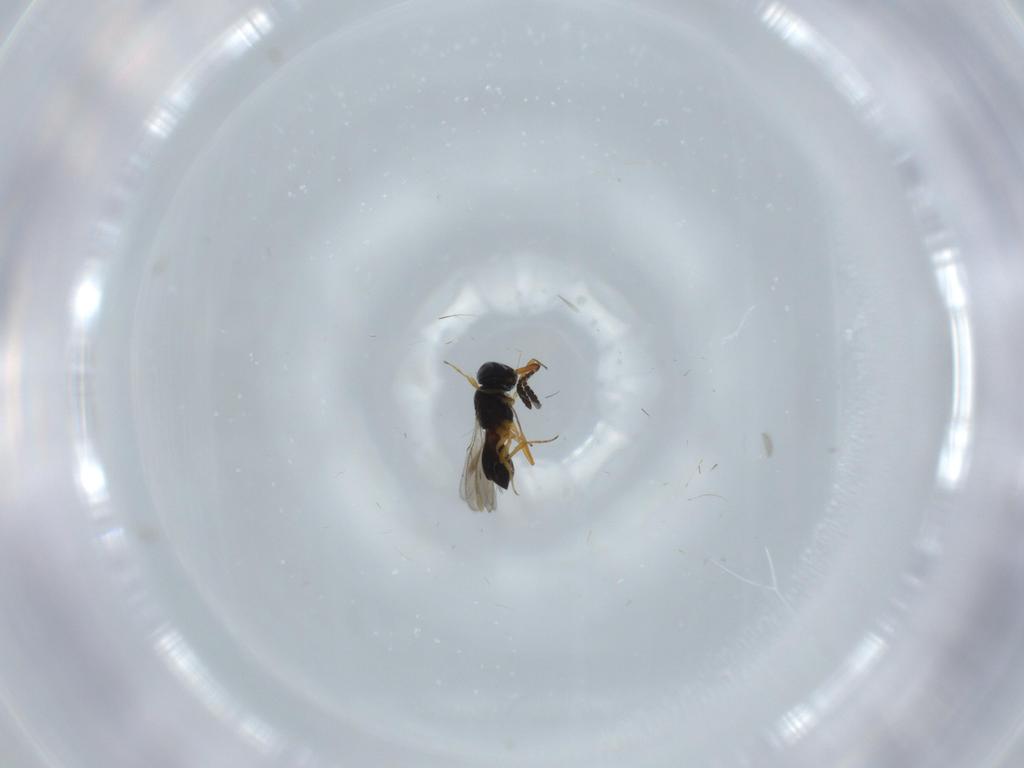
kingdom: Animalia
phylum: Arthropoda
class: Insecta
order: Hymenoptera
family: Scelionidae
